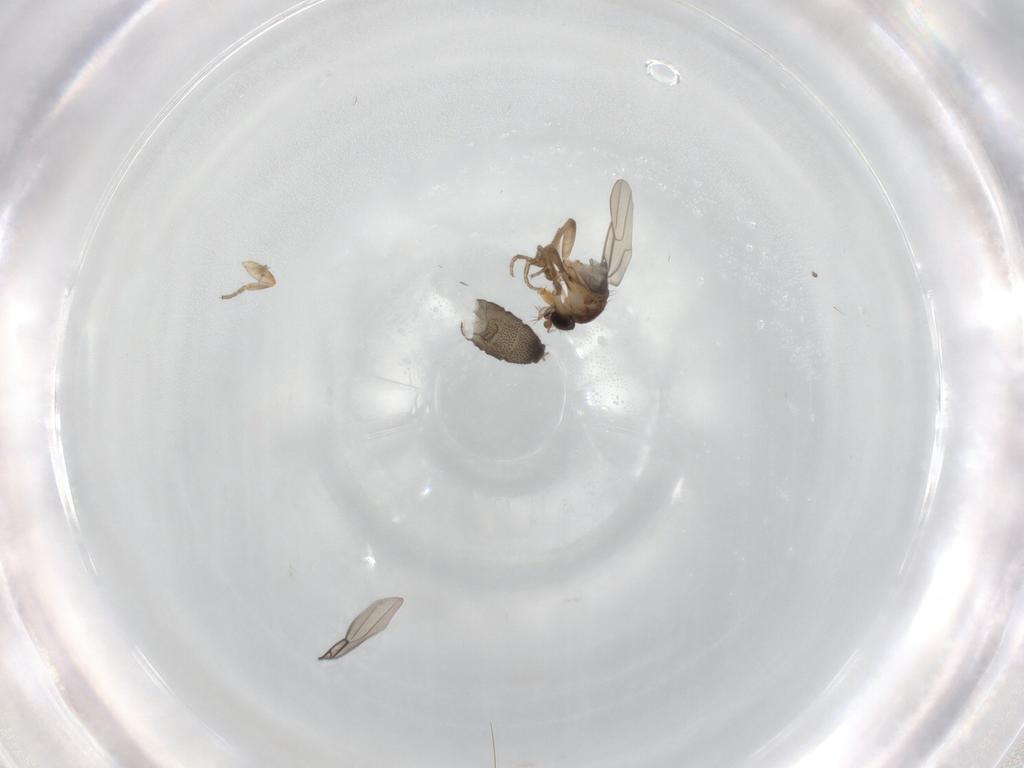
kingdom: Animalia
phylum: Arthropoda
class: Insecta
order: Diptera
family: Phoridae
